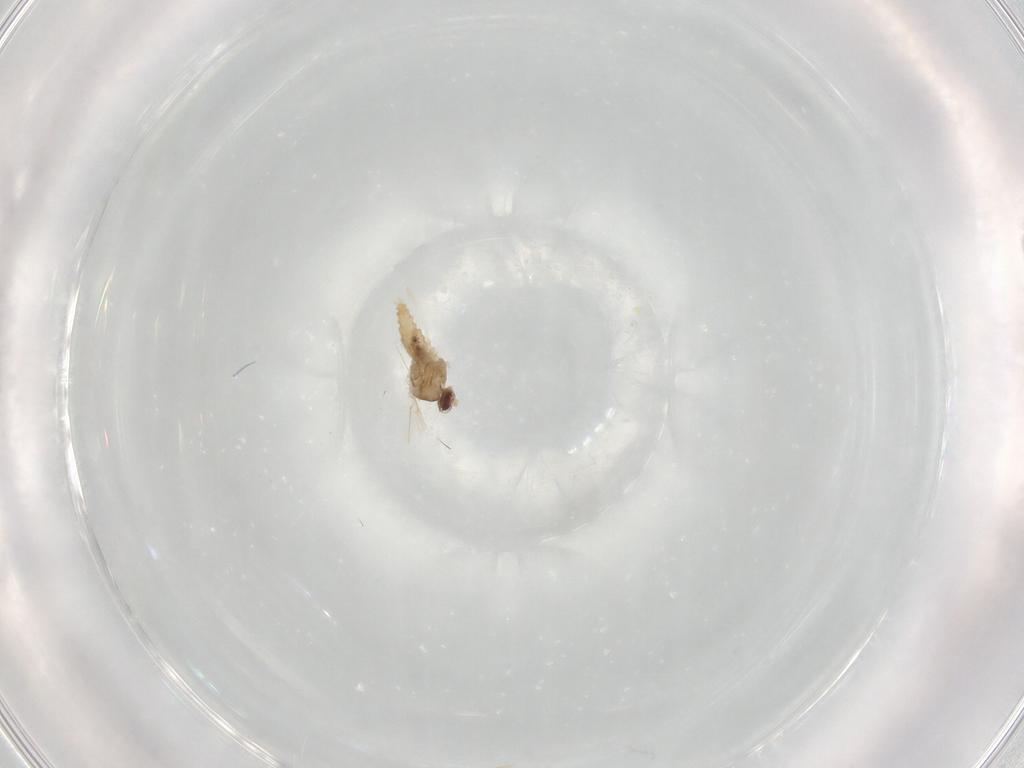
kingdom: Animalia
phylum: Arthropoda
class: Insecta
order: Diptera
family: Cecidomyiidae
